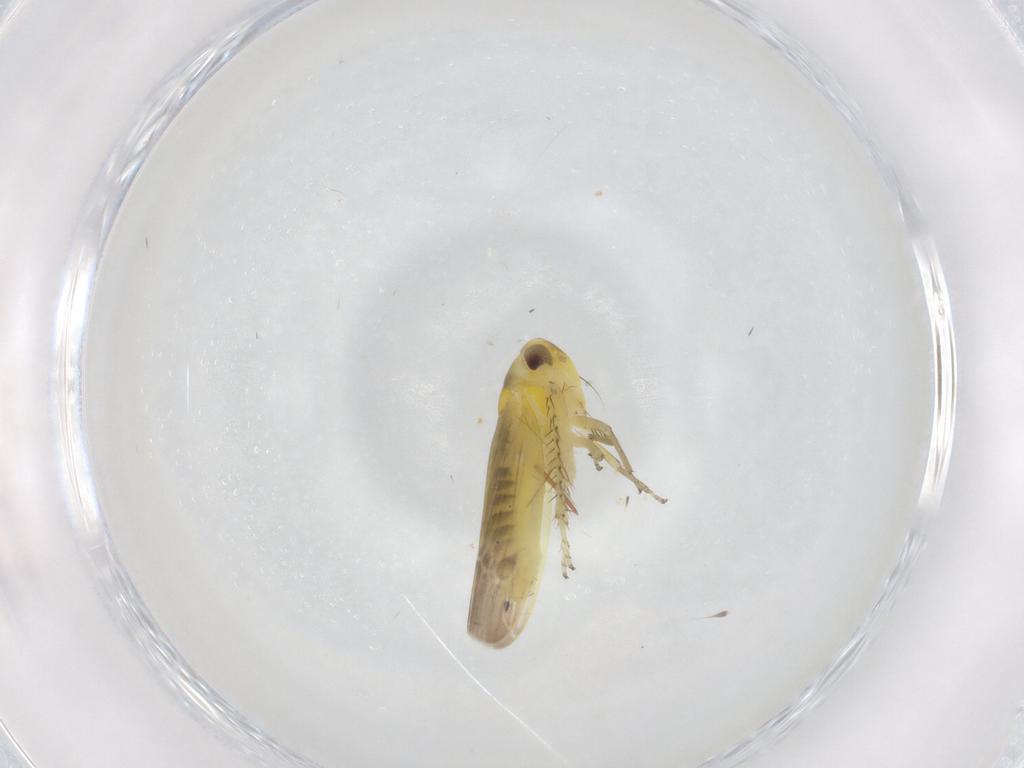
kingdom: Animalia
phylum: Arthropoda
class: Insecta
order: Hemiptera
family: Cicadellidae
